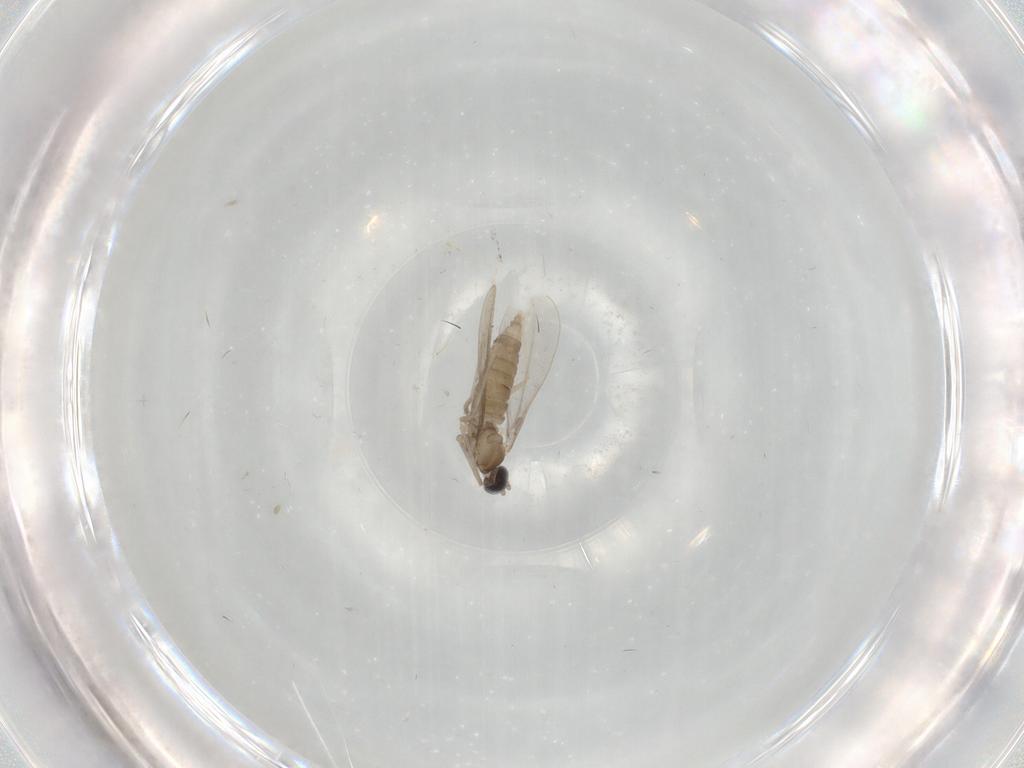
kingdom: Animalia
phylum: Arthropoda
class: Insecta
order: Diptera
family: Cecidomyiidae
